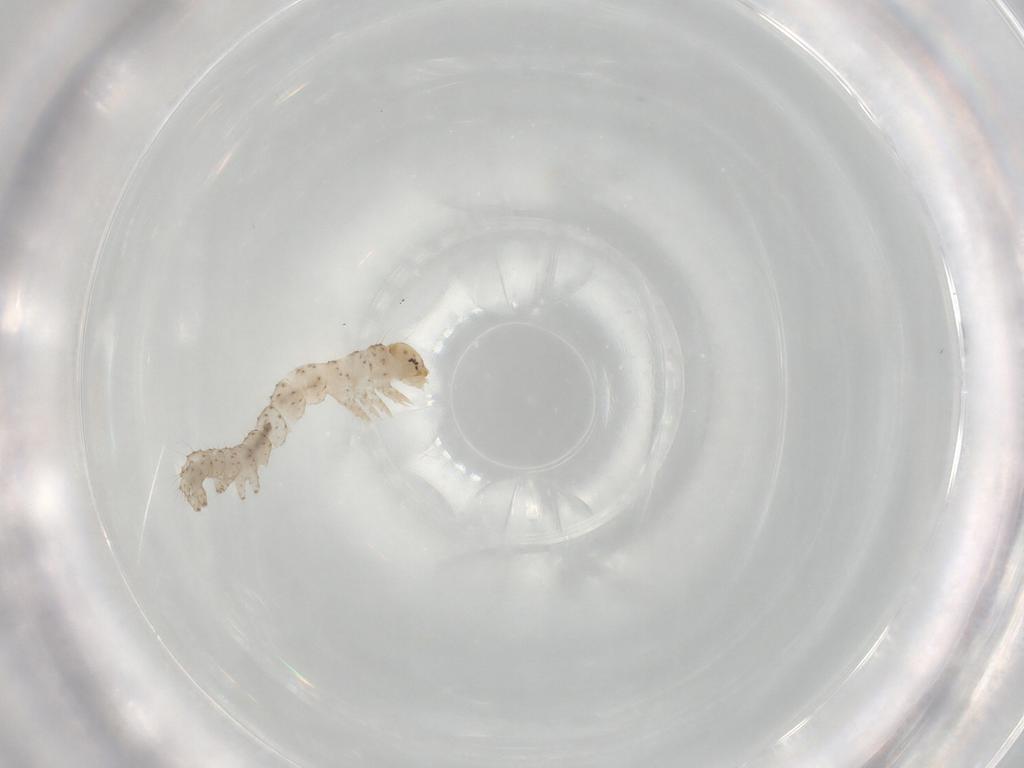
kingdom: Animalia
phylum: Arthropoda
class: Insecta
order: Lepidoptera
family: Erebidae
